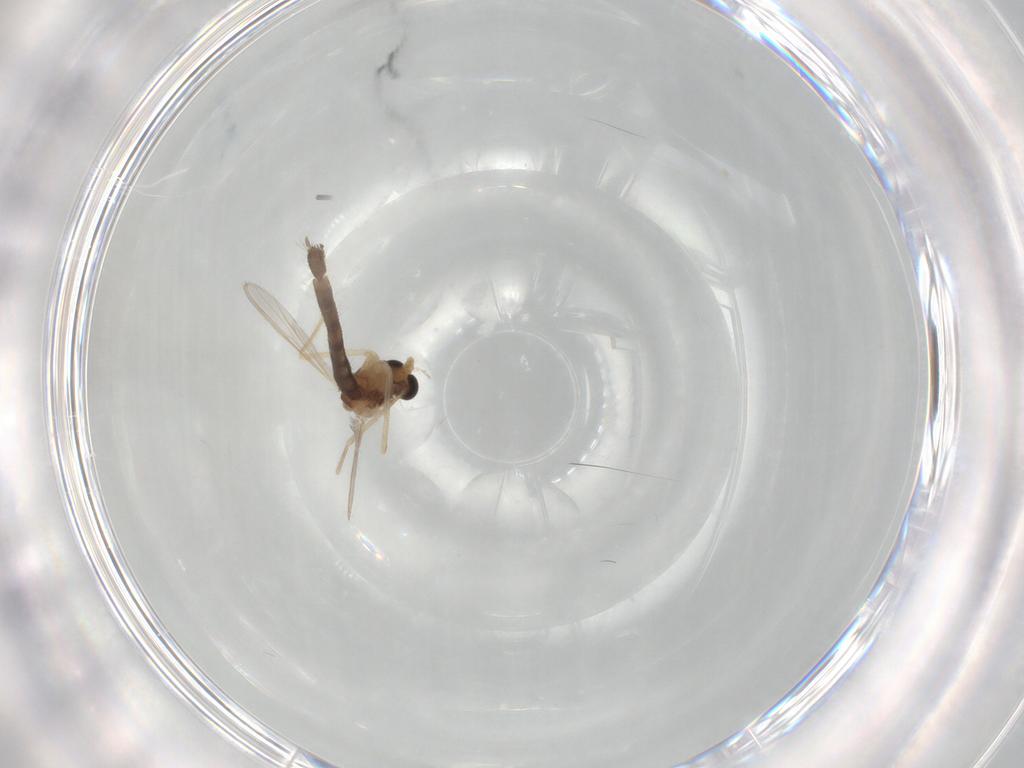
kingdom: Animalia
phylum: Arthropoda
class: Insecta
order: Diptera
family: Chironomidae
